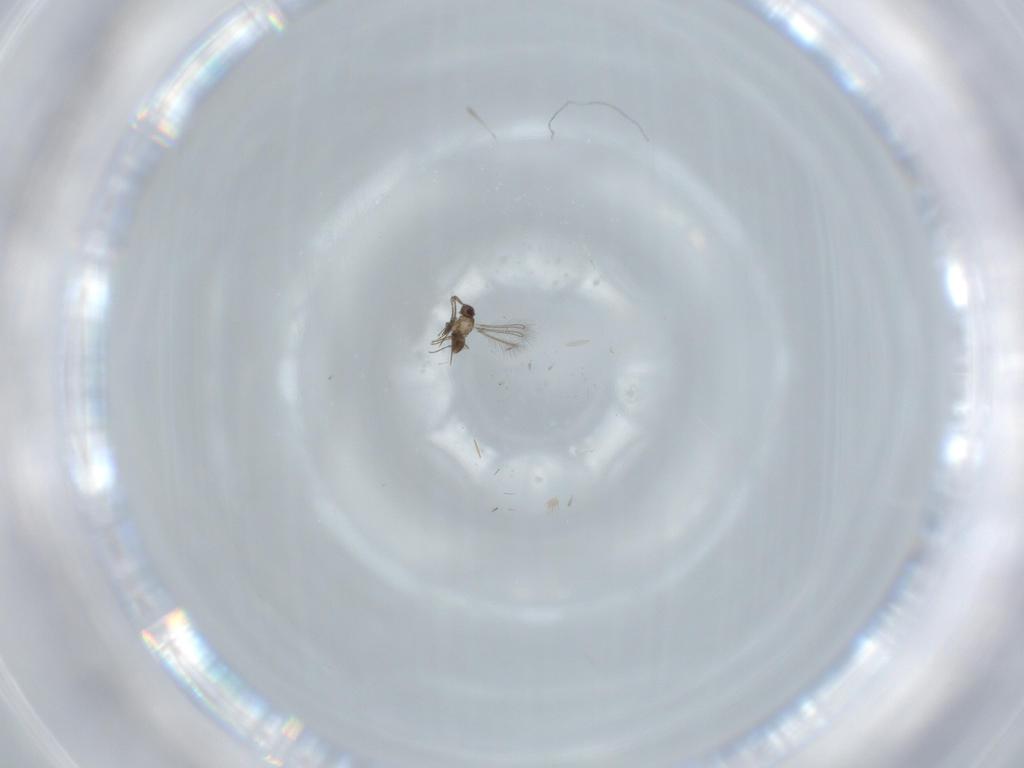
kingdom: Animalia
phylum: Arthropoda
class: Insecta
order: Hymenoptera
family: Mymaridae
